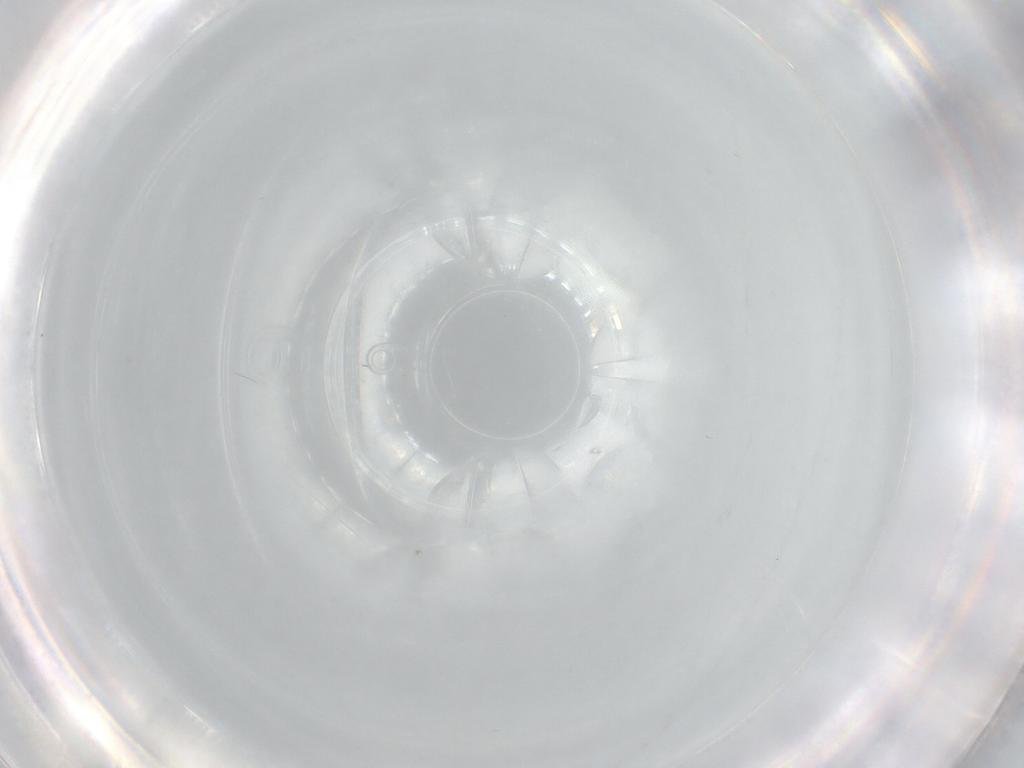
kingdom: Animalia
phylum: Arthropoda
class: Insecta
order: Diptera
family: Sciaridae
